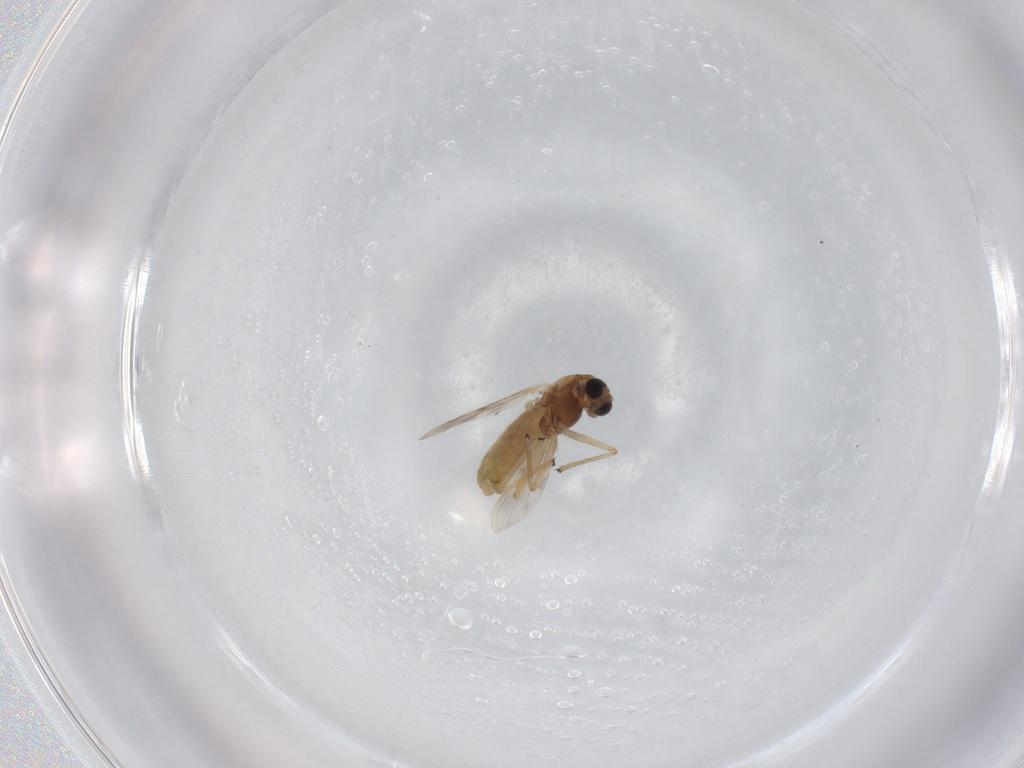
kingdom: Animalia
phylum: Arthropoda
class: Insecta
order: Diptera
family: Chironomidae
